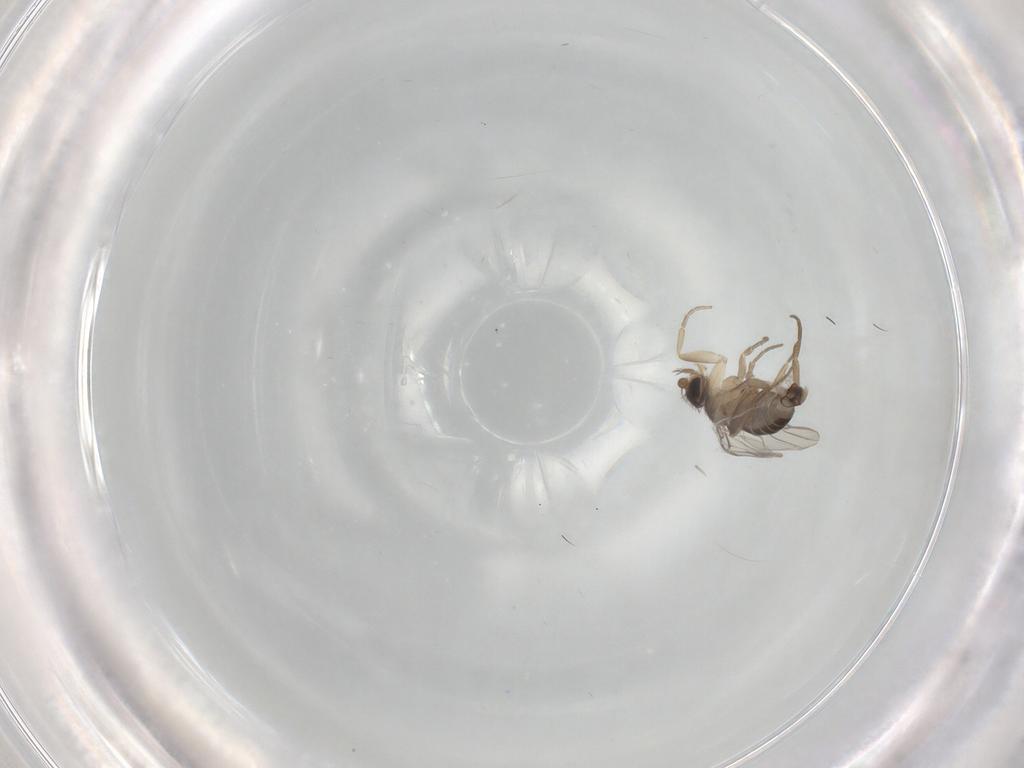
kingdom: Animalia
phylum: Arthropoda
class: Insecta
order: Diptera
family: Phoridae
